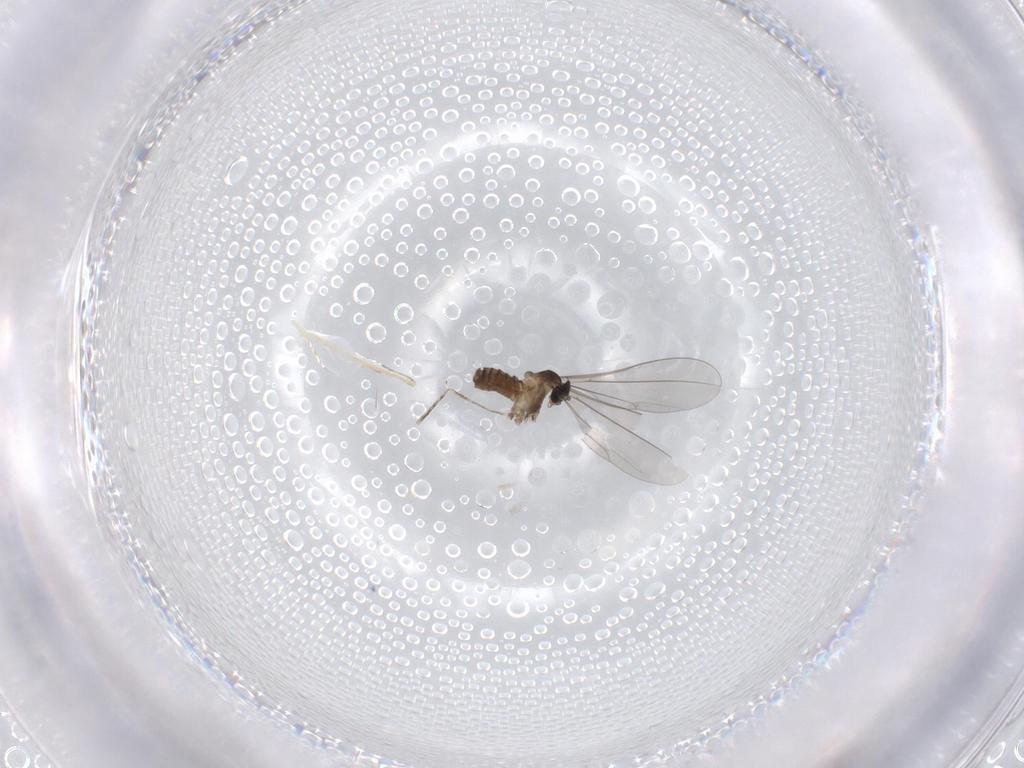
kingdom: Animalia
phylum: Arthropoda
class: Insecta
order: Diptera
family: Cecidomyiidae
